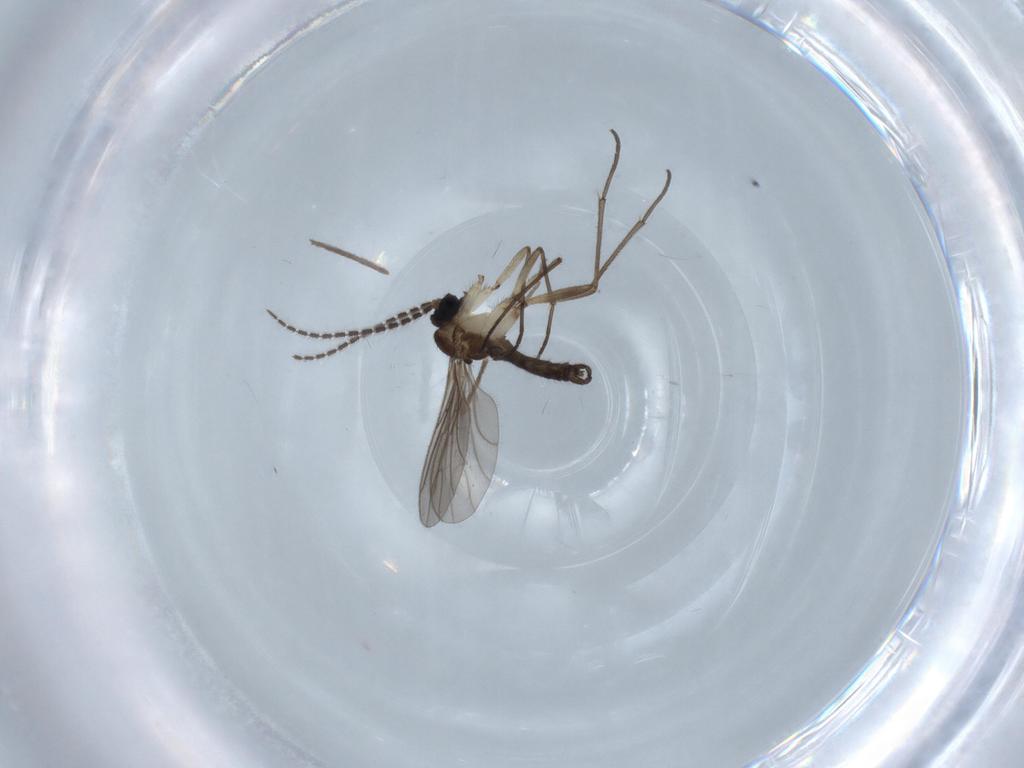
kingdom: Animalia
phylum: Arthropoda
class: Insecta
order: Diptera
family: Sciaridae
